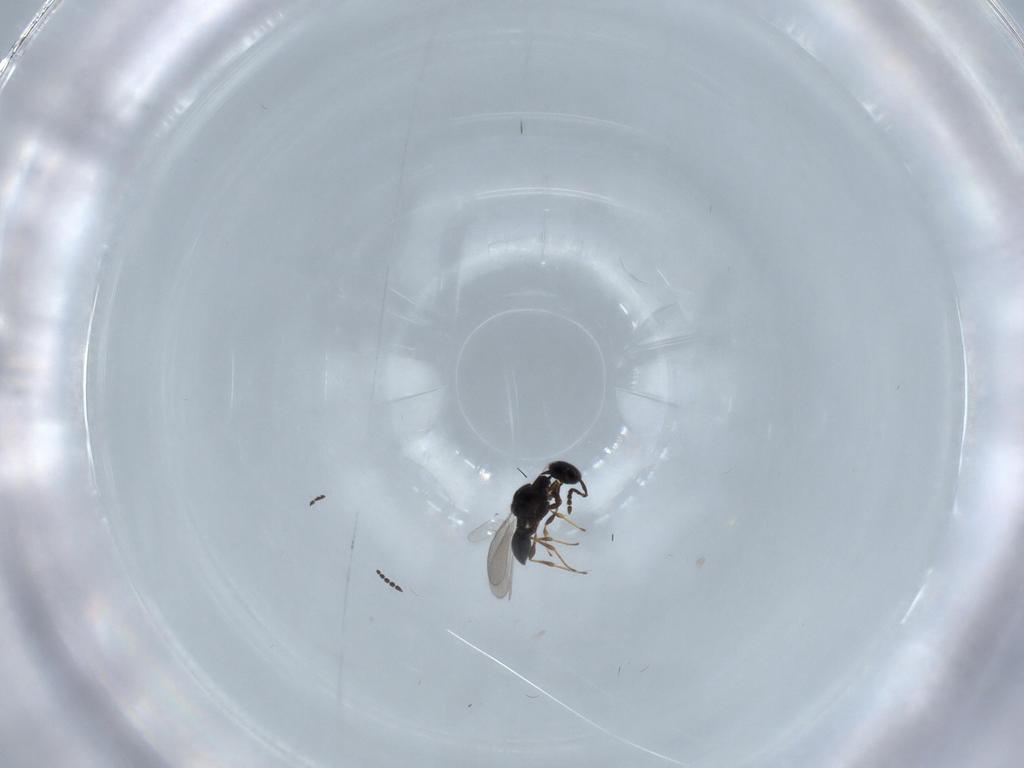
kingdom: Animalia
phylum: Arthropoda
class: Insecta
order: Hymenoptera
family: Platygastridae
